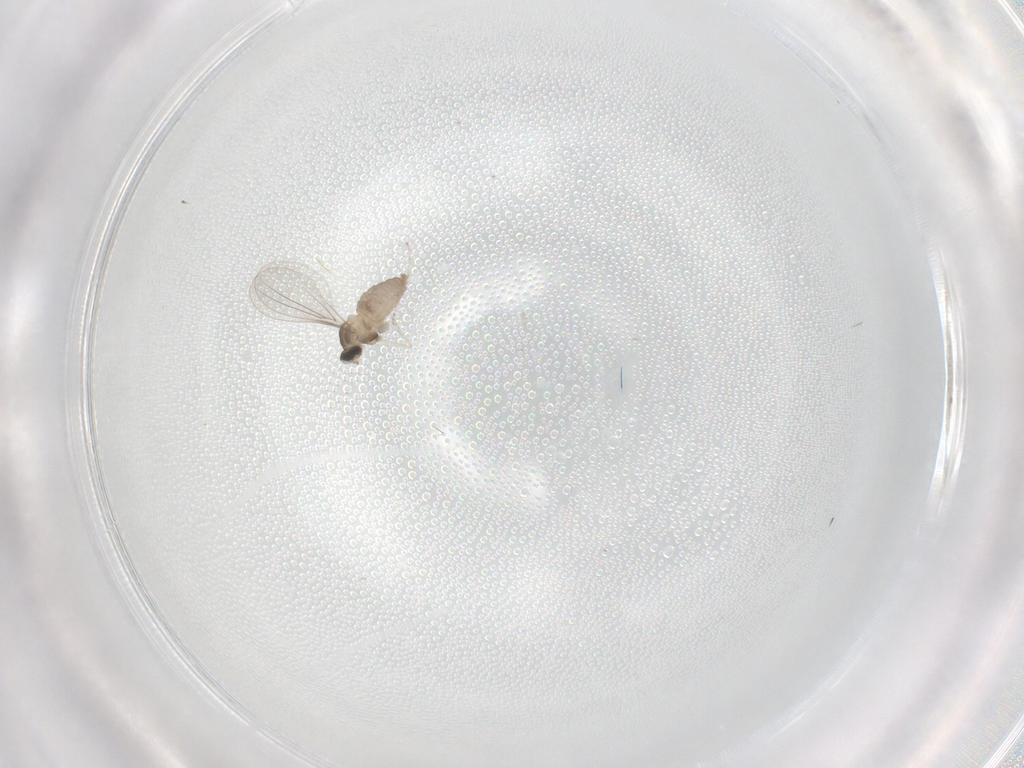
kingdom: Animalia
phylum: Arthropoda
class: Insecta
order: Diptera
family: Cecidomyiidae
